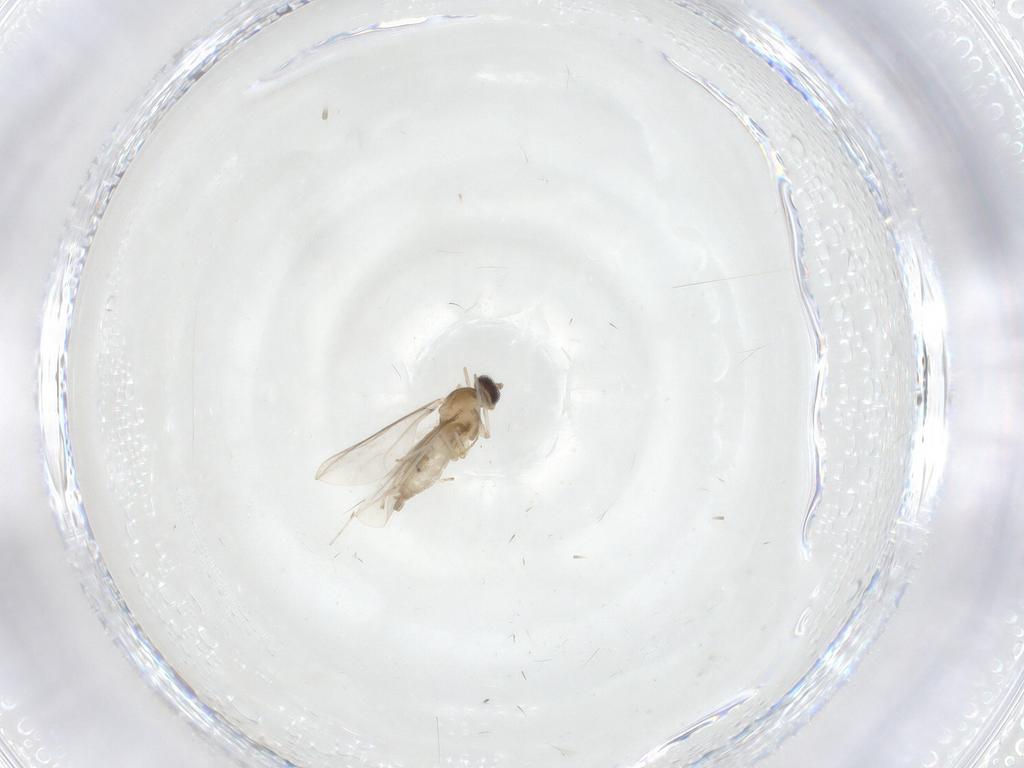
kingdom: Animalia
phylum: Arthropoda
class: Insecta
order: Diptera
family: Cecidomyiidae
